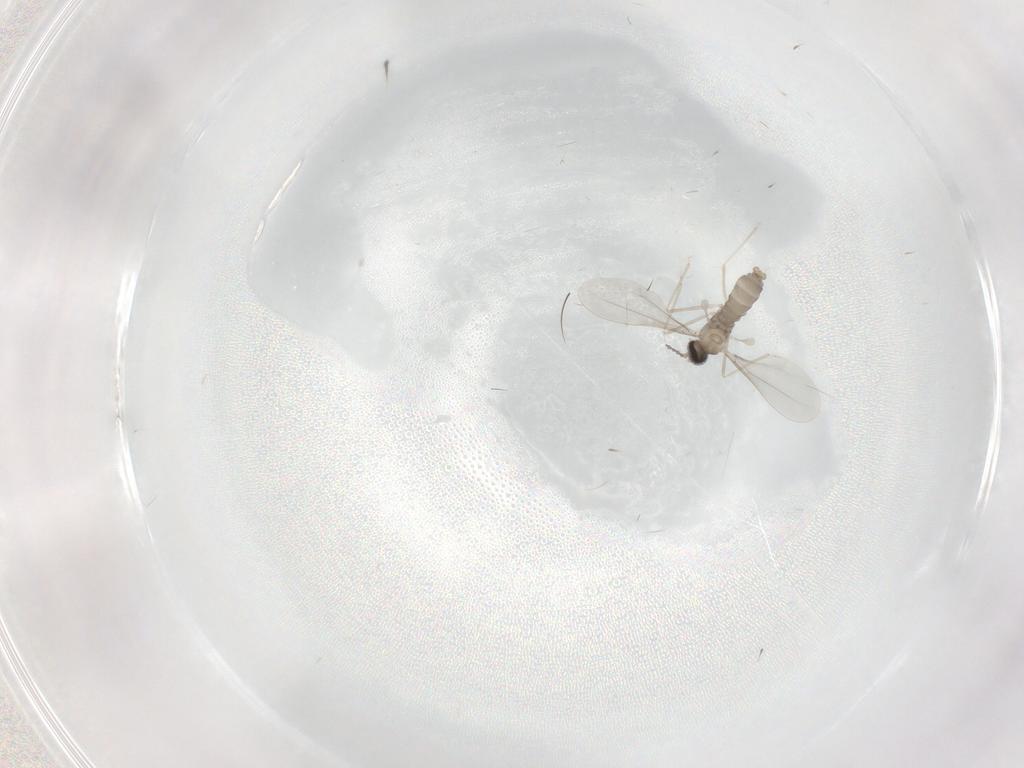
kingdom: Animalia
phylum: Arthropoda
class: Insecta
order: Diptera
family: Cecidomyiidae
